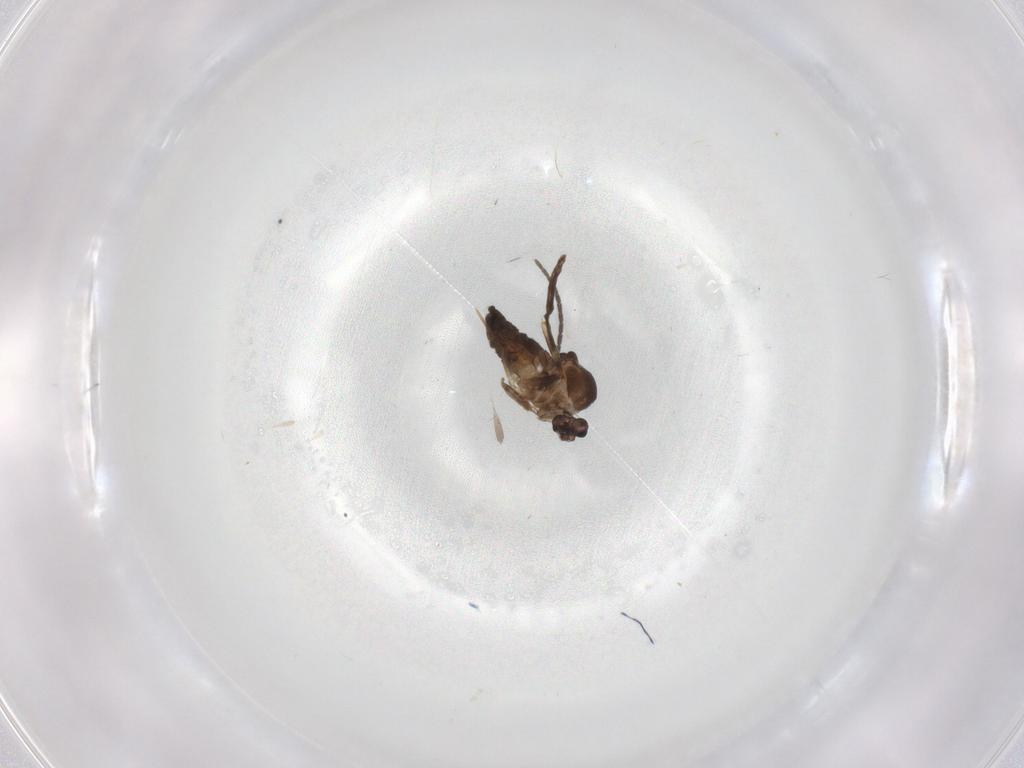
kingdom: Animalia
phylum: Arthropoda
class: Insecta
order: Diptera
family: Ceratopogonidae
